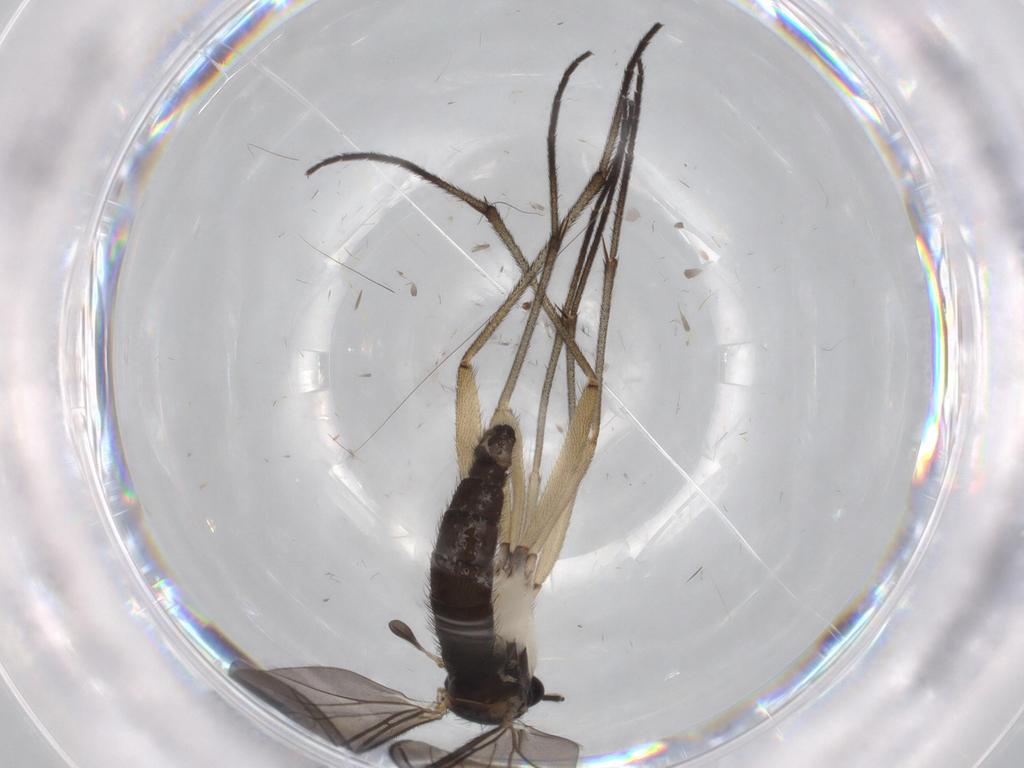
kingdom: Animalia
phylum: Arthropoda
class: Insecta
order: Diptera
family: Sciaridae
